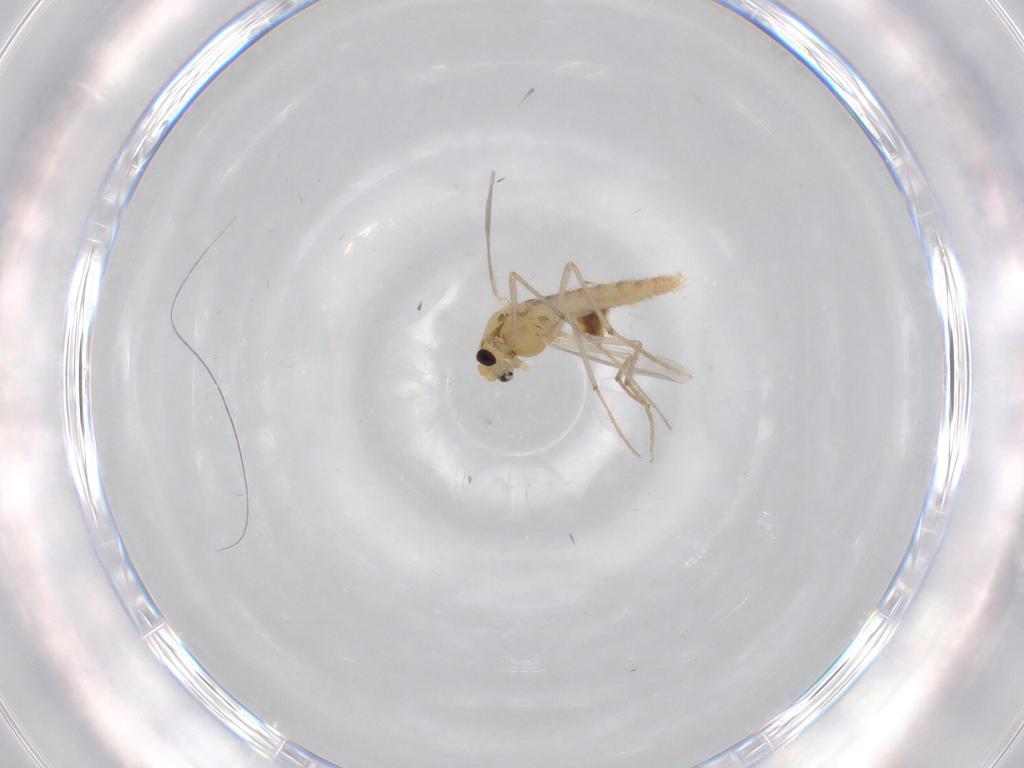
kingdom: Animalia
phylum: Arthropoda
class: Insecta
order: Diptera
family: Chironomidae
